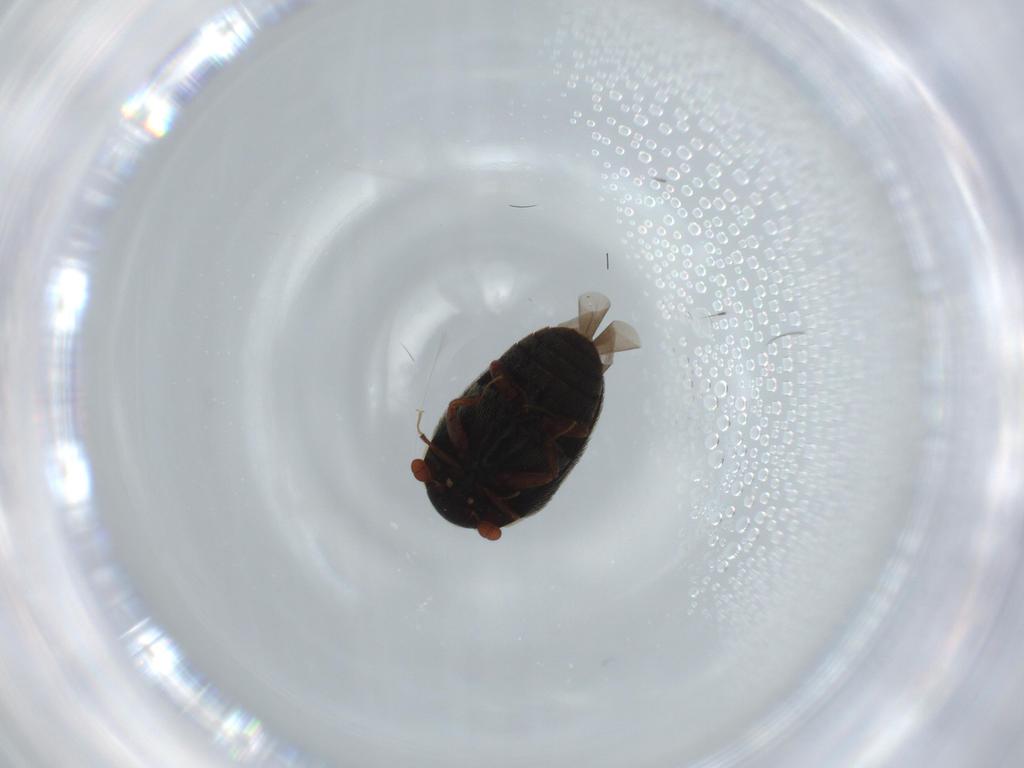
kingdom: Animalia
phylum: Arthropoda
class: Insecta
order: Coleoptera
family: Dermestidae
